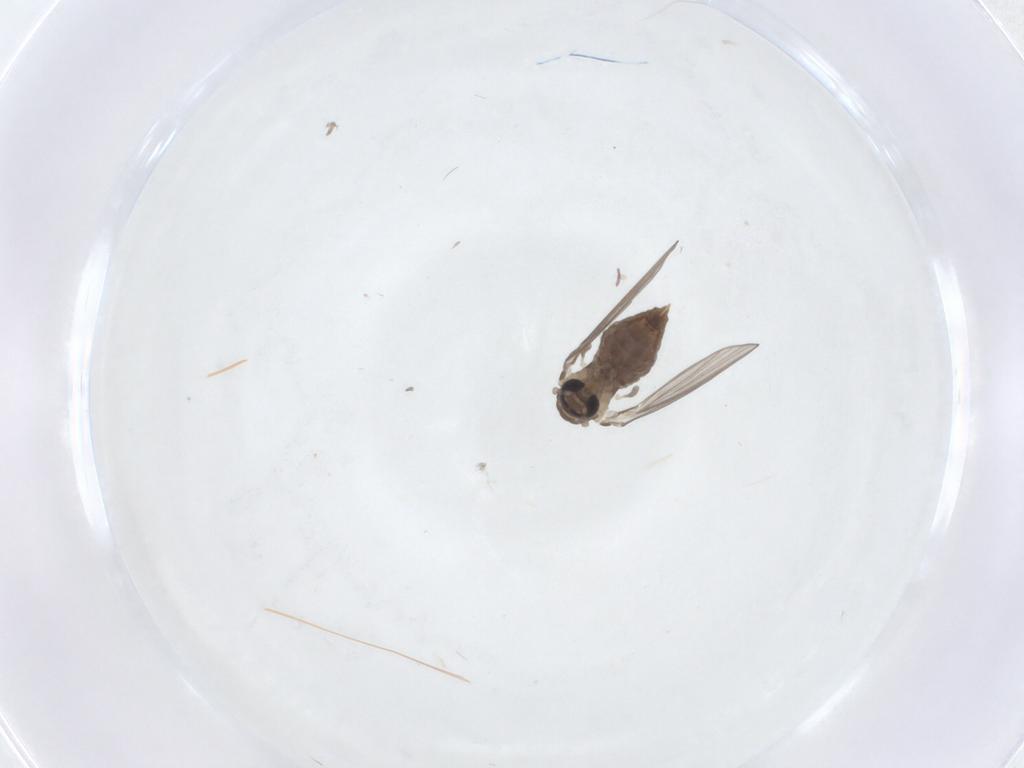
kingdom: Animalia
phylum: Arthropoda
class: Insecta
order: Diptera
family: Psychodidae
